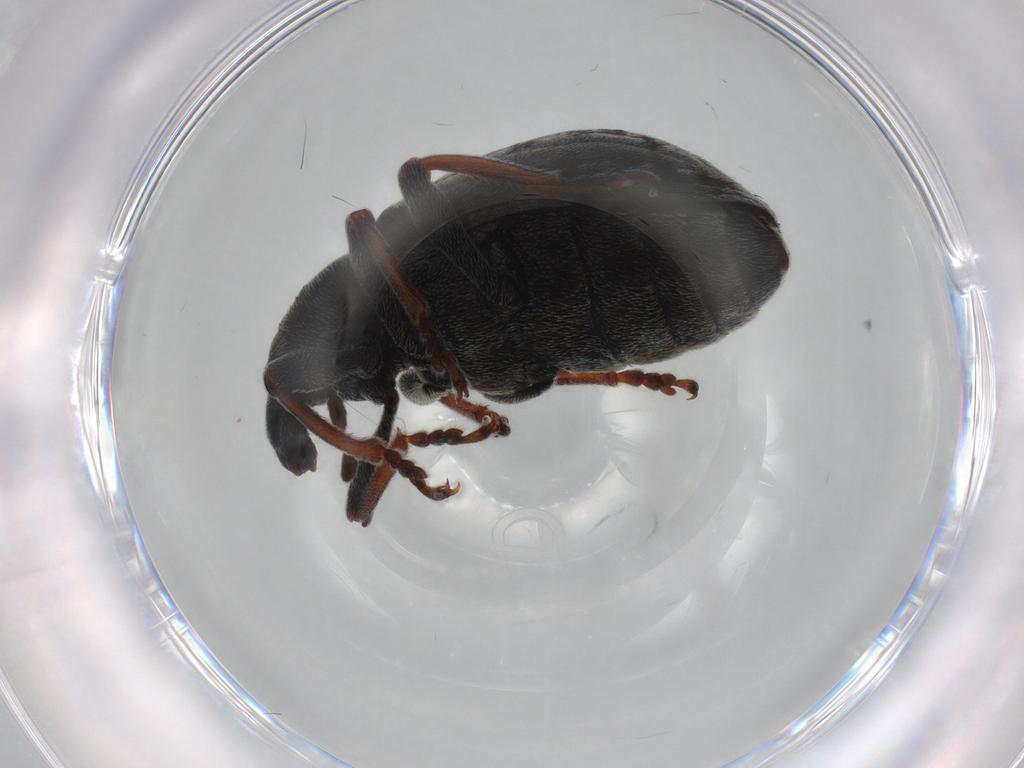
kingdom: Animalia
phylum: Arthropoda
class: Insecta
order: Coleoptera
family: Curculionidae
